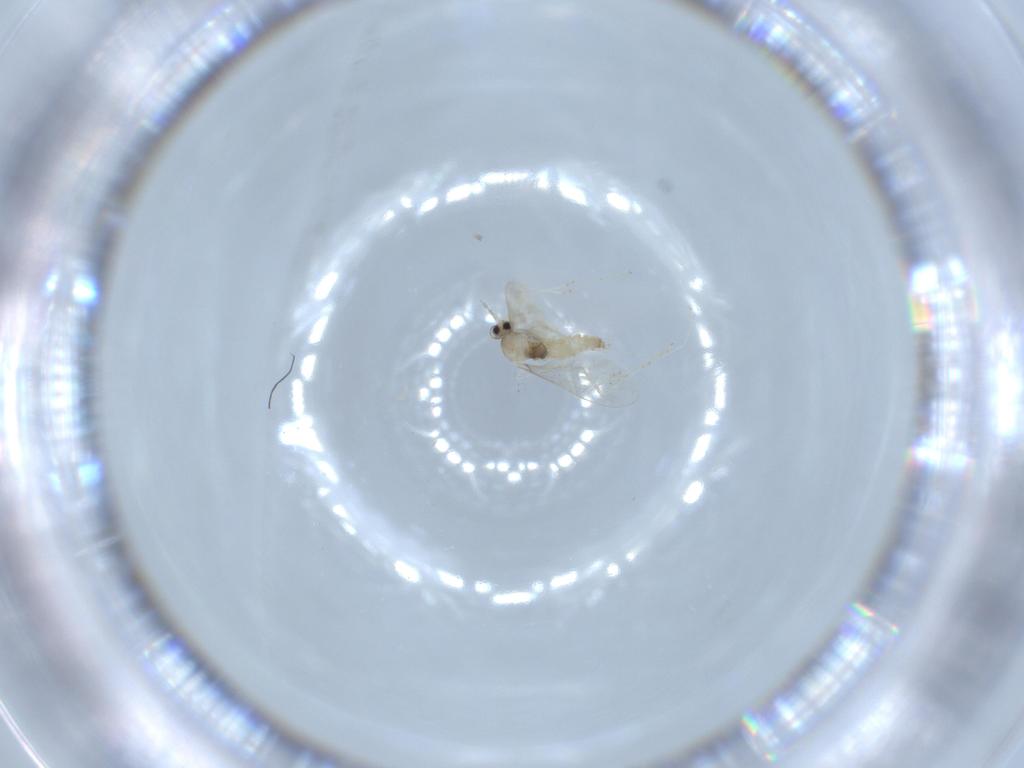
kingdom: Animalia
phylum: Arthropoda
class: Insecta
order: Diptera
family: Cecidomyiidae
